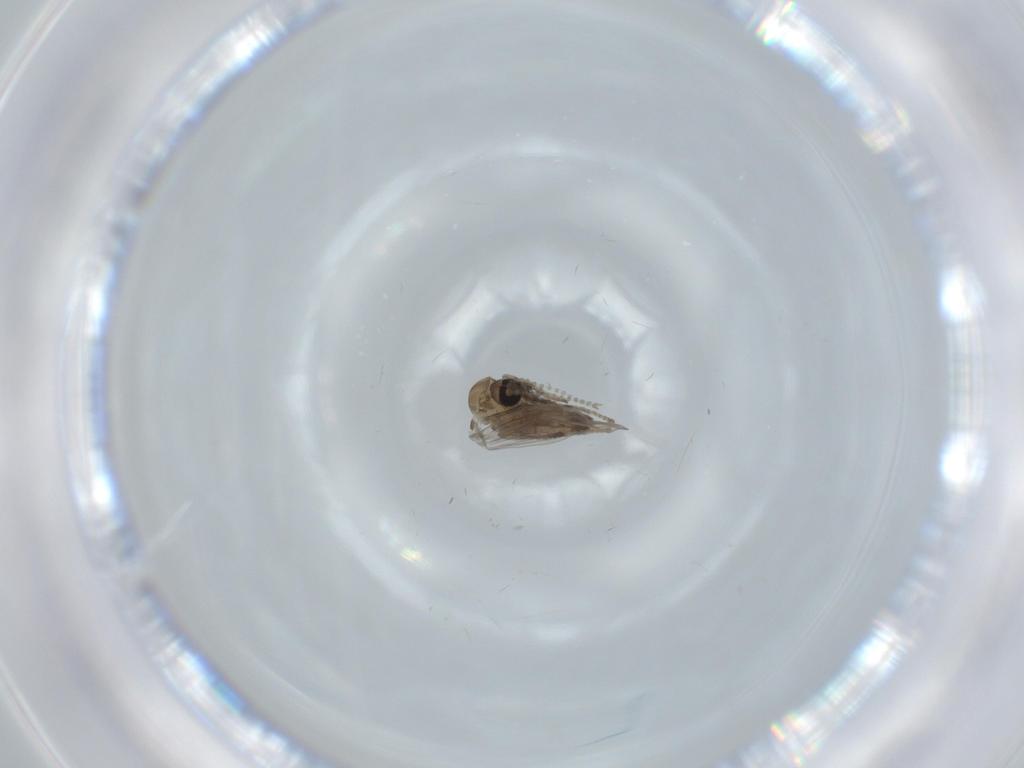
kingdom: Animalia
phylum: Arthropoda
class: Insecta
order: Diptera
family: Psychodidae
